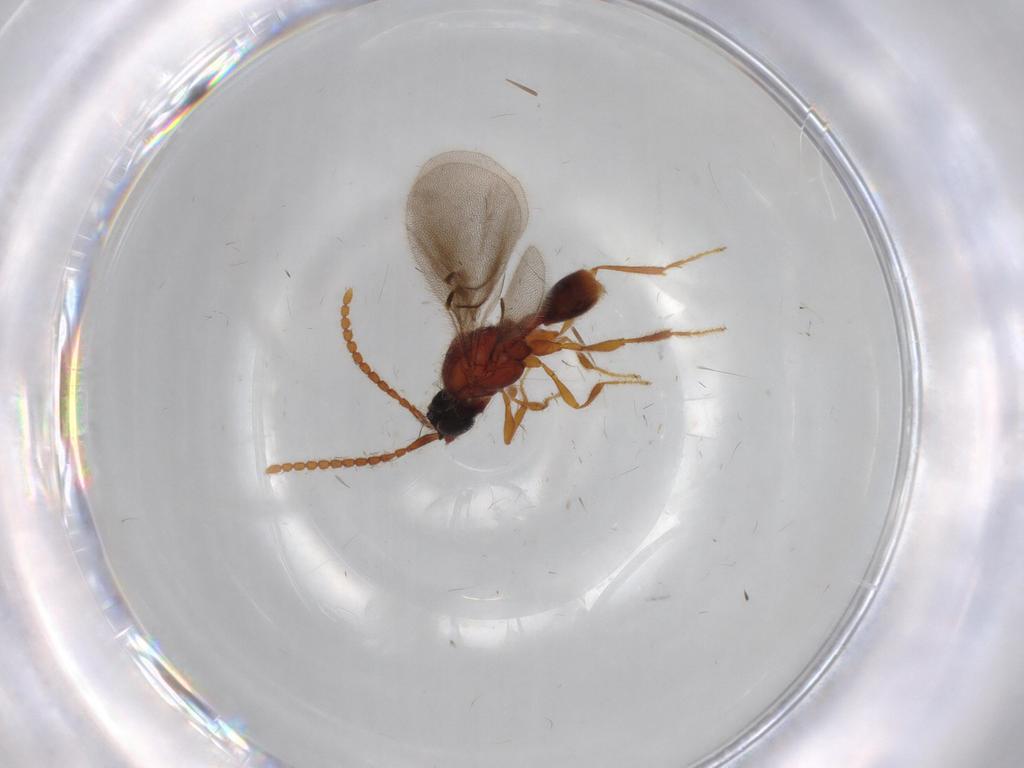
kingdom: Animalia
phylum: Arthropoda
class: Insecta
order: Hymenoptera
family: Diapriidae
